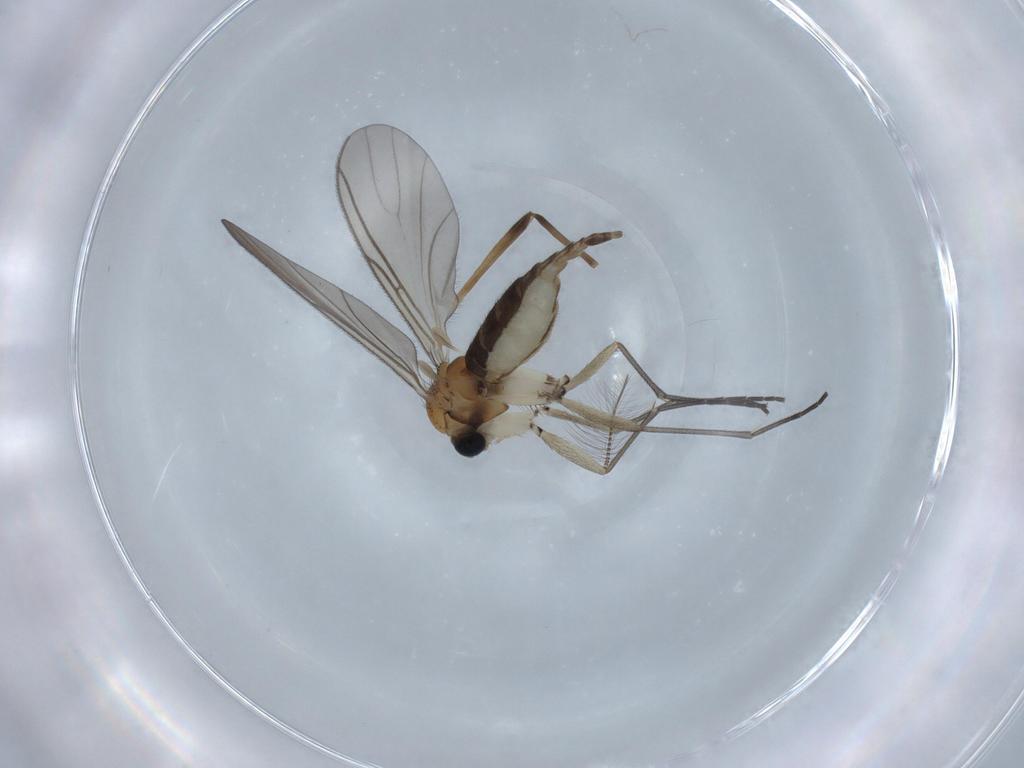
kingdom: Animalia
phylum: Arthropoda
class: Insecta
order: Diptera
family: Sciaridae
